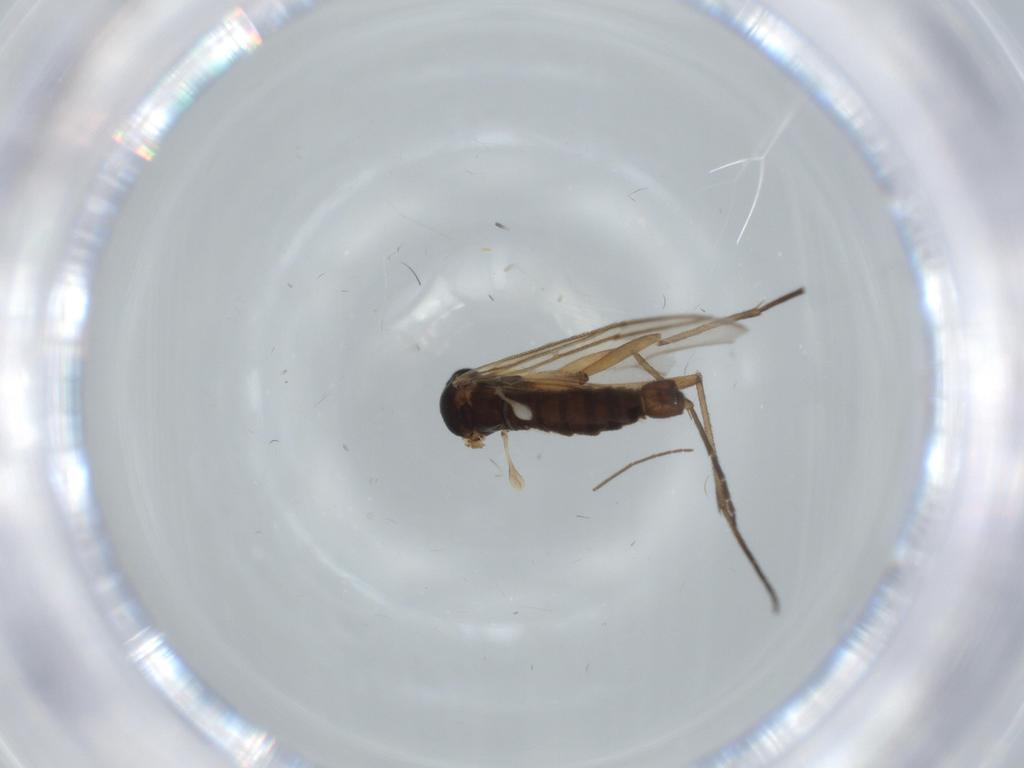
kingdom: Animalia
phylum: Arthropoda
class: Insecta
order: Diptera
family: Chironomidae
